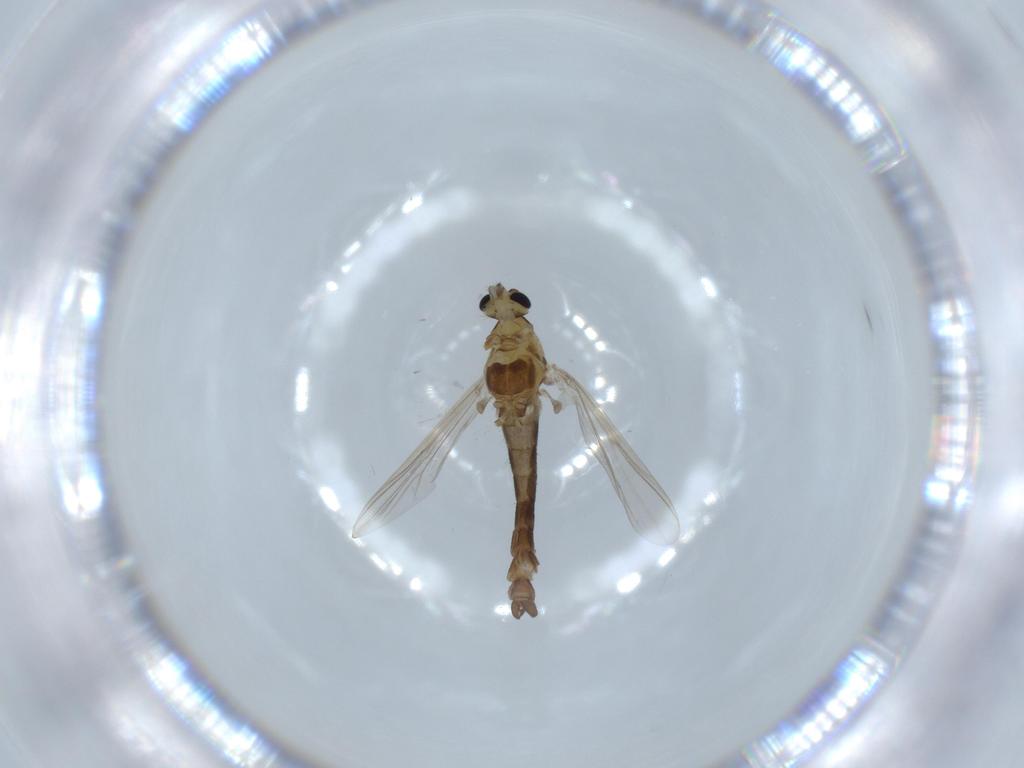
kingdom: Animalia
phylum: Arthropoda
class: Insecta
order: Diptera
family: Chironomidae
